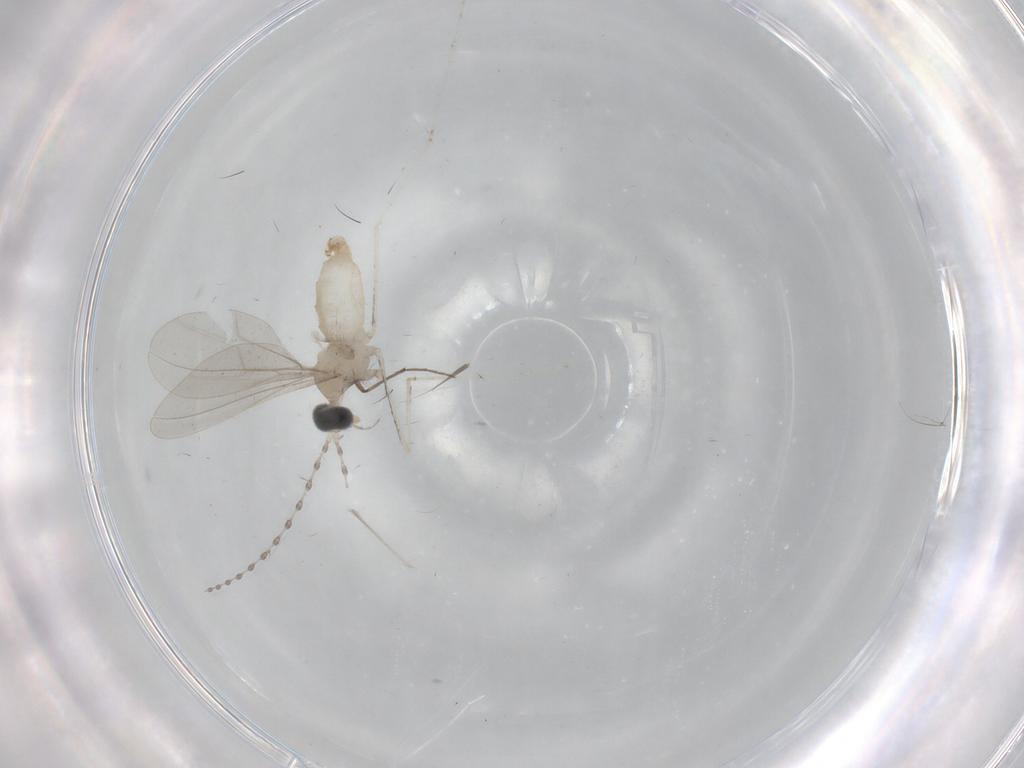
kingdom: Animalia
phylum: Arthropoda
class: Insecta
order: Diptera
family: Cecidomyiidae
